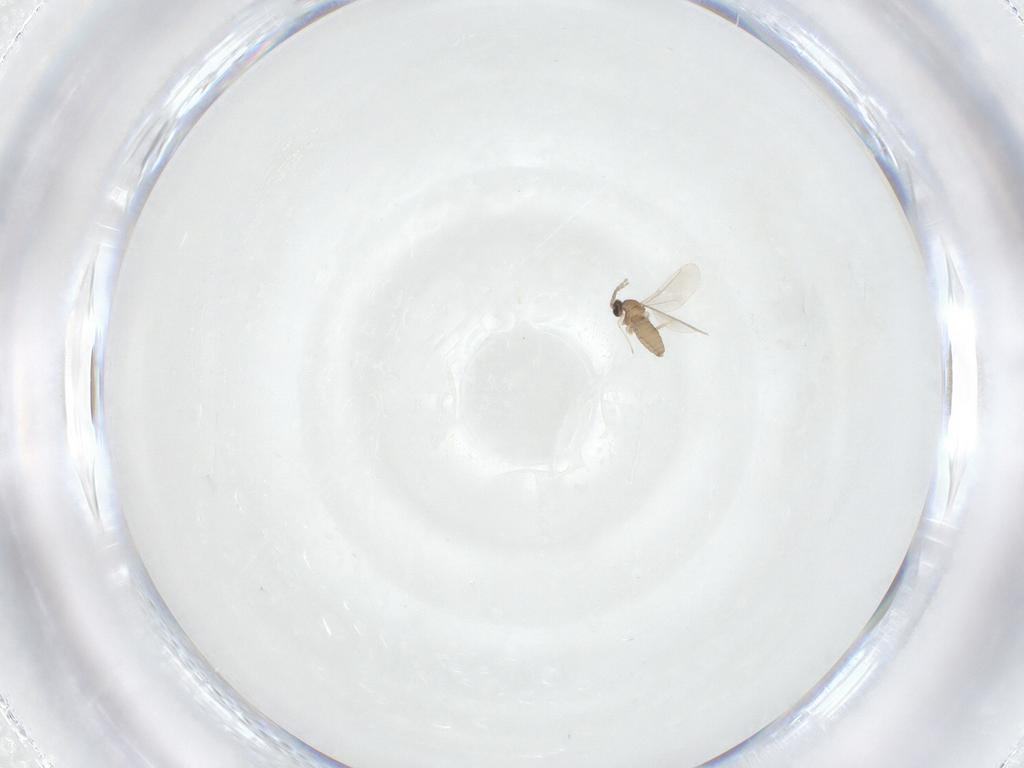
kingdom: Animalia
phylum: Arthropoda
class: Insecta
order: Diptera
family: Cecidomyiidae
